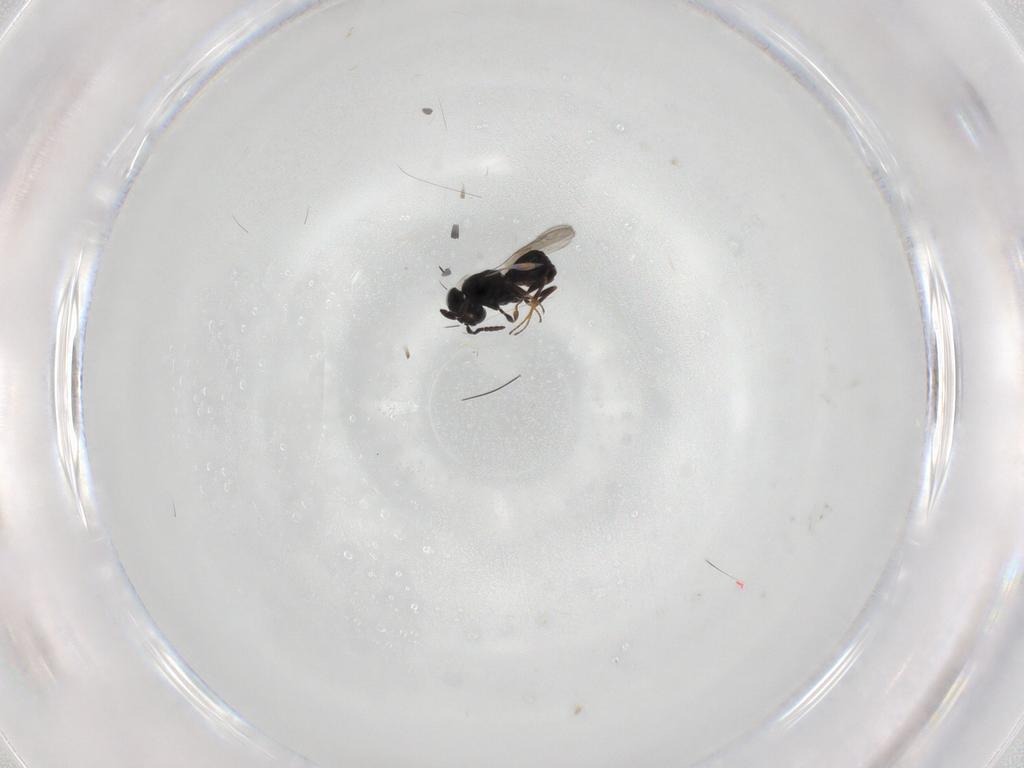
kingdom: Animalia
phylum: Arthropoda
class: Insecta
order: Hymenoptera
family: Scelionidae
